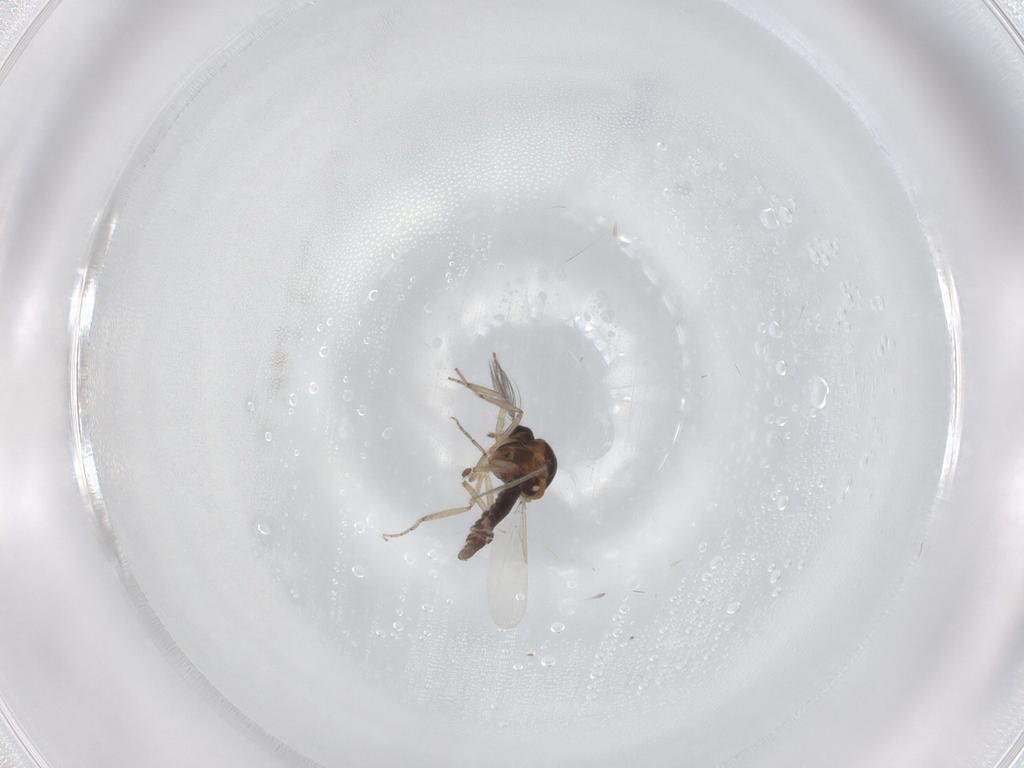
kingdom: Animalia
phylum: Arthropoda
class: Insecta
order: Diptera
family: Ceratopogonidae
